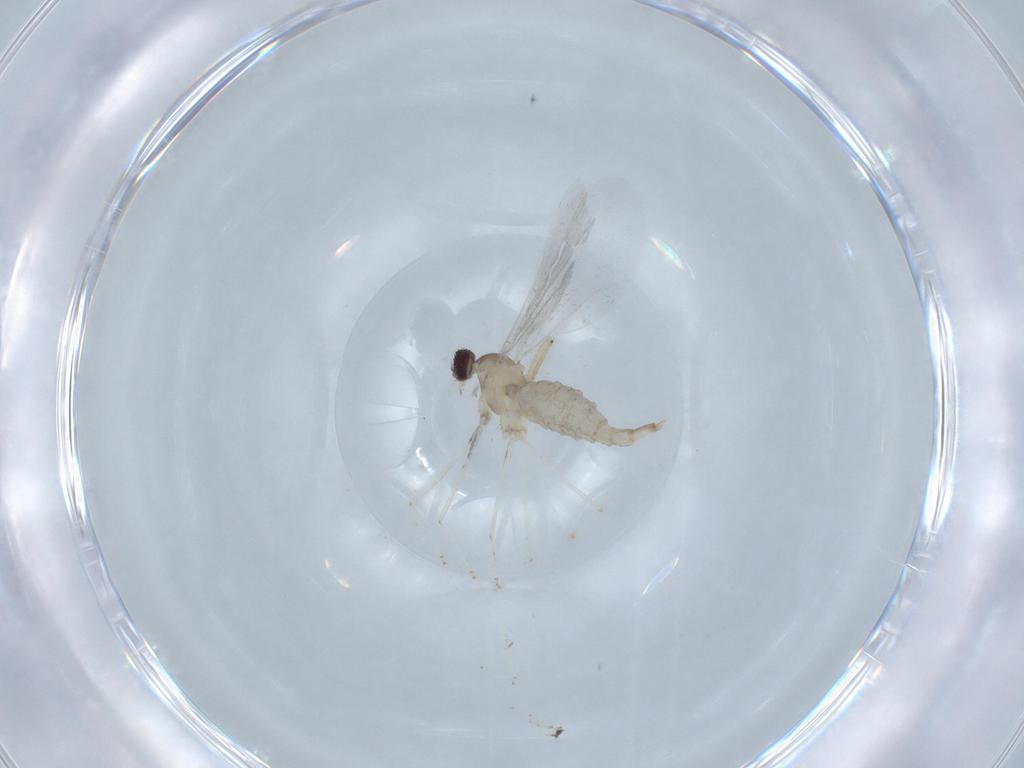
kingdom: Animalia
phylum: Arthropoda
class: Insecta
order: Diptera
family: Cecidomyiidae
